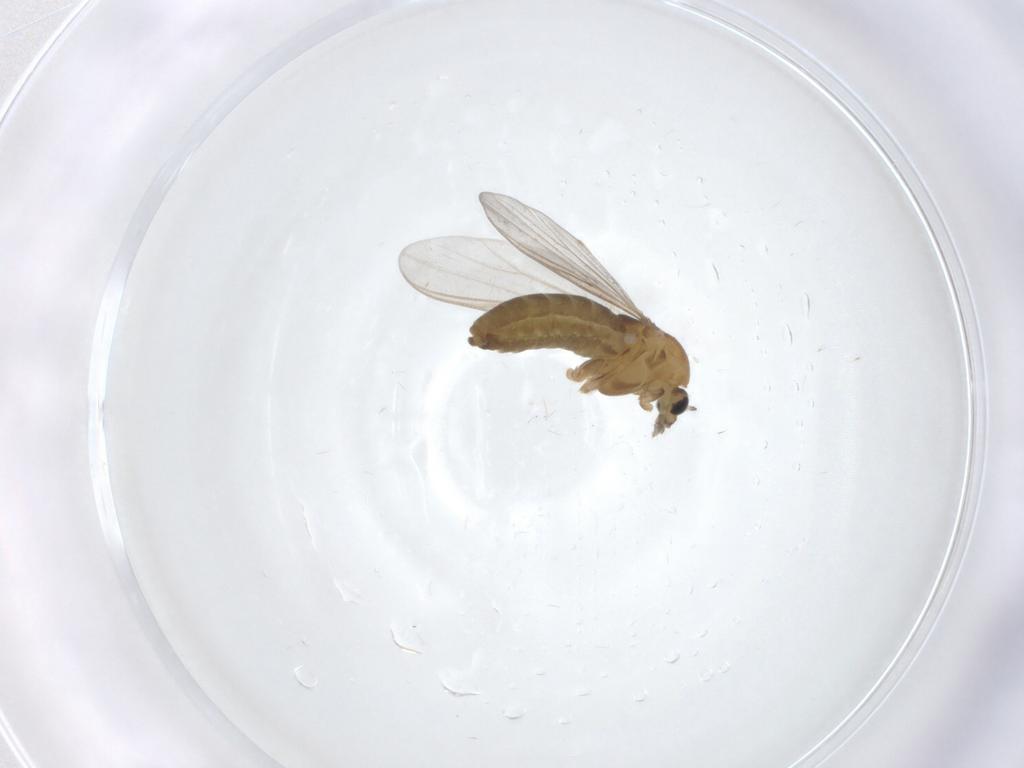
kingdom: Animalia
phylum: Arthropoda
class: Insecta
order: Diptera
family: Chironomidae
